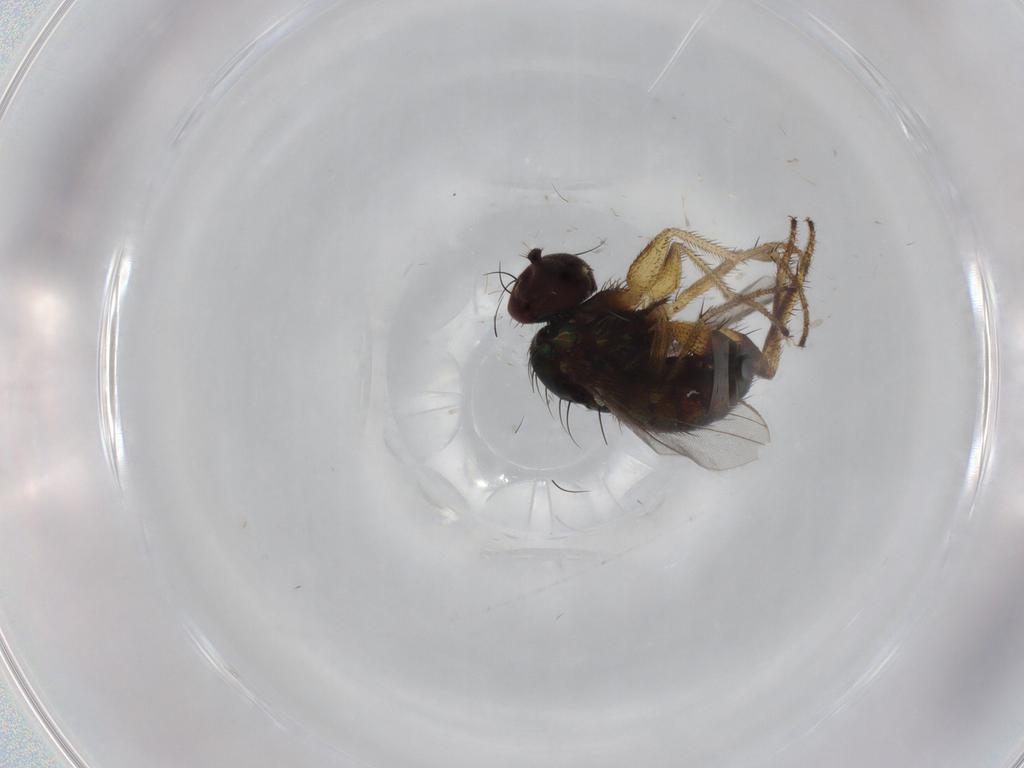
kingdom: Animalia
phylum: Arthropoda
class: Insecta
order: Diptera
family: Dolichopodidae
